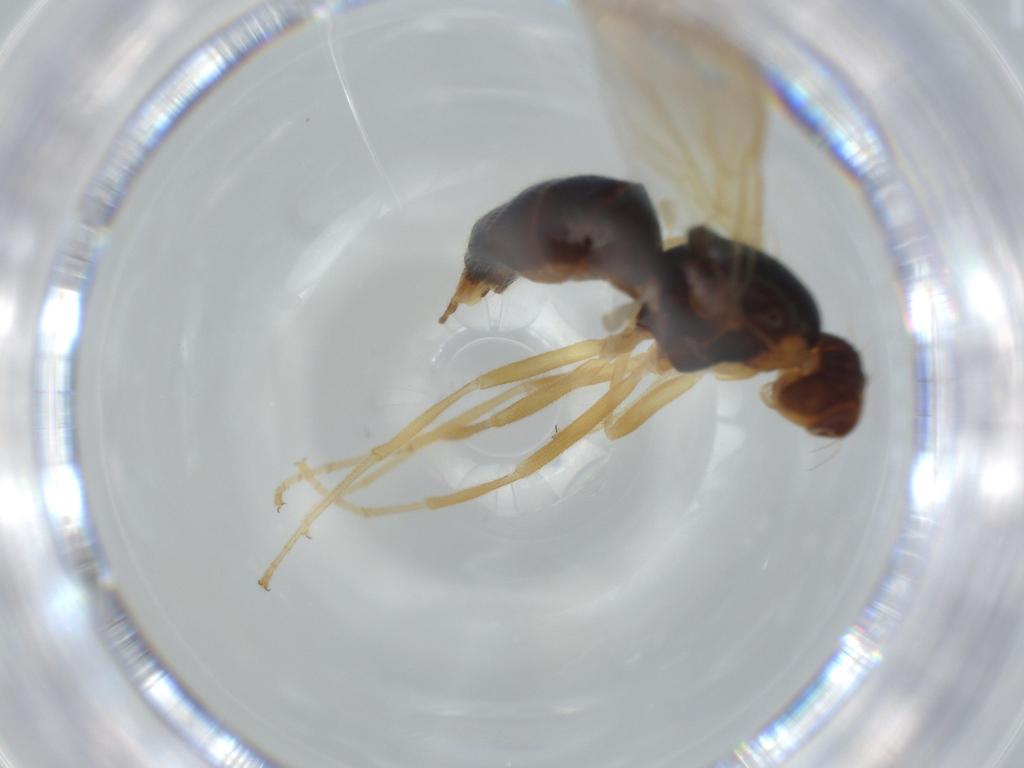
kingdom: Animalia
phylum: Arthropoda
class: Insecta
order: Diptera
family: Psilidae
